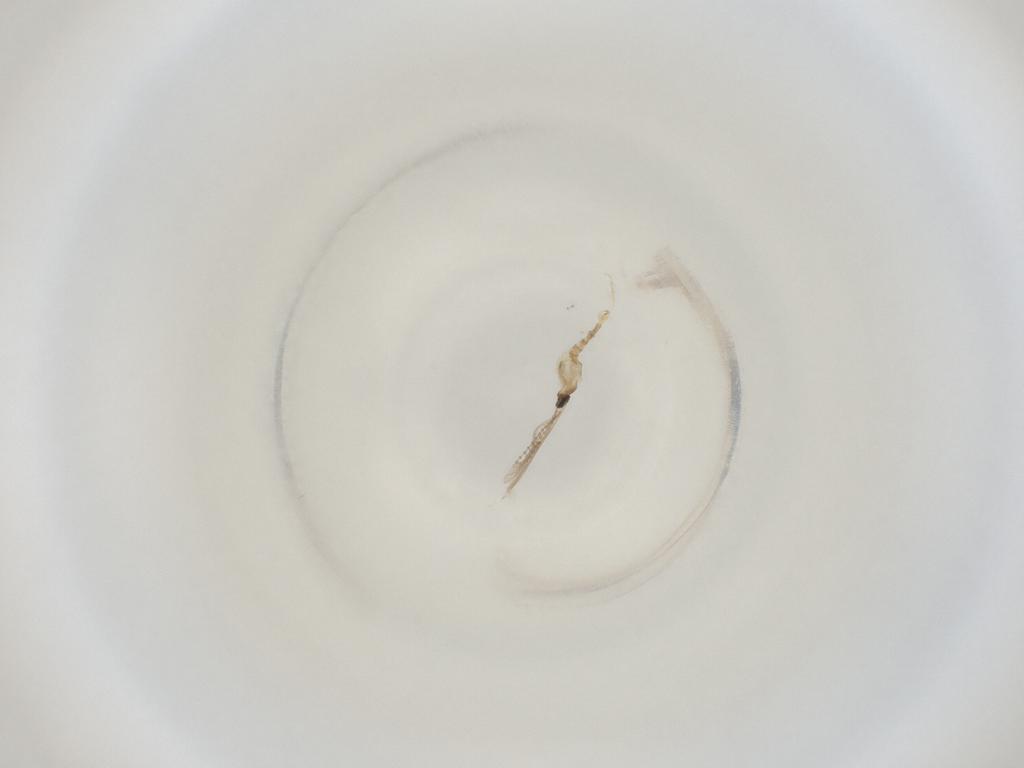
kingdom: Animalia
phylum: Arthropoda
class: Insecta
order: Diptera
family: Cecidomyiidae
